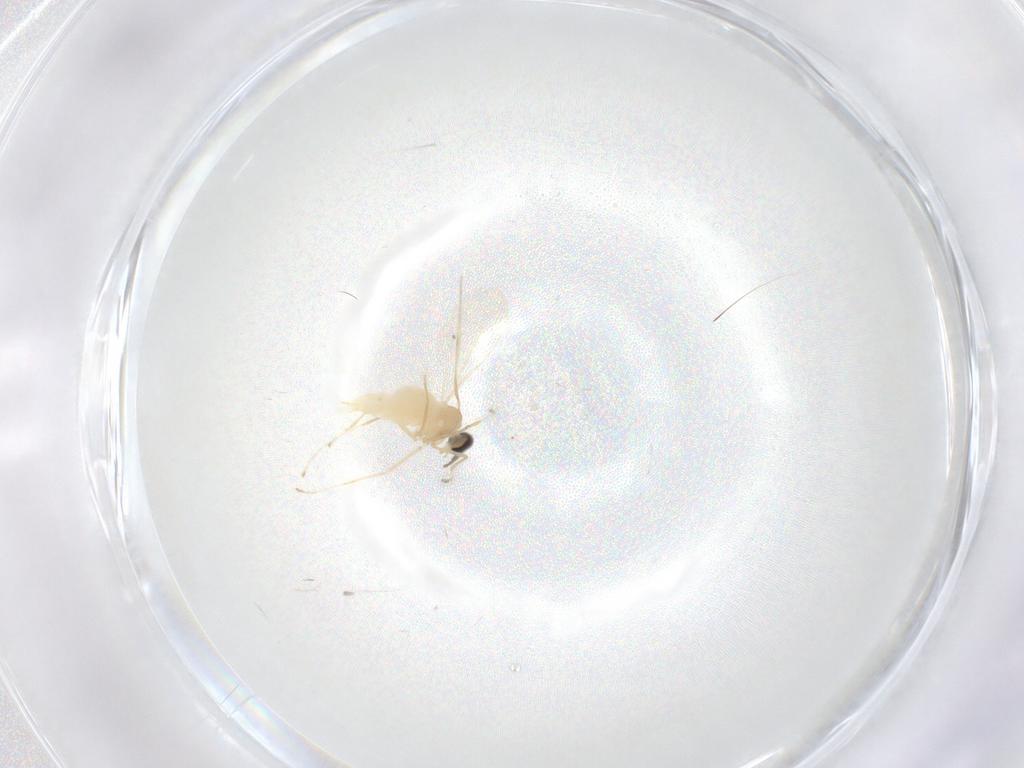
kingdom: Animalia
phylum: Arthropoda
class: Insecta
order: Diptera
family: Cecidomyiidae
